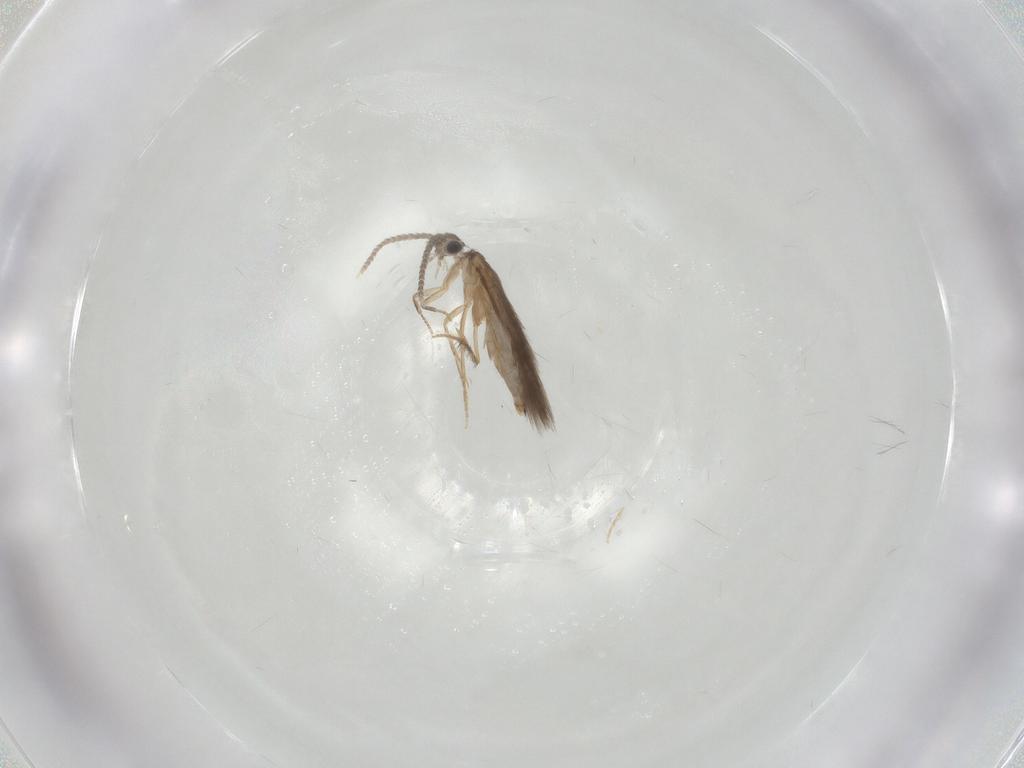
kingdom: Animalia
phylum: Arthropoda
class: Insecta
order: Trichoptera
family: Hydroptilidae
